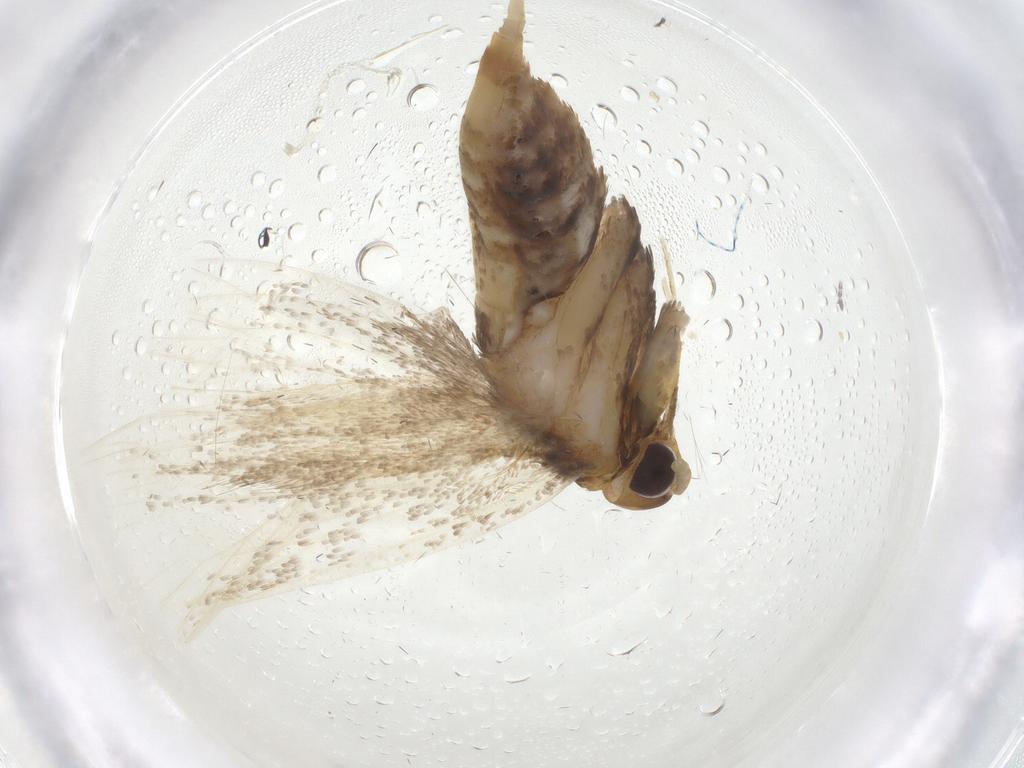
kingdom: Animalia
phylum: Arthropoda
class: Insecta
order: Lepidoptera
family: Lecithoceridae
